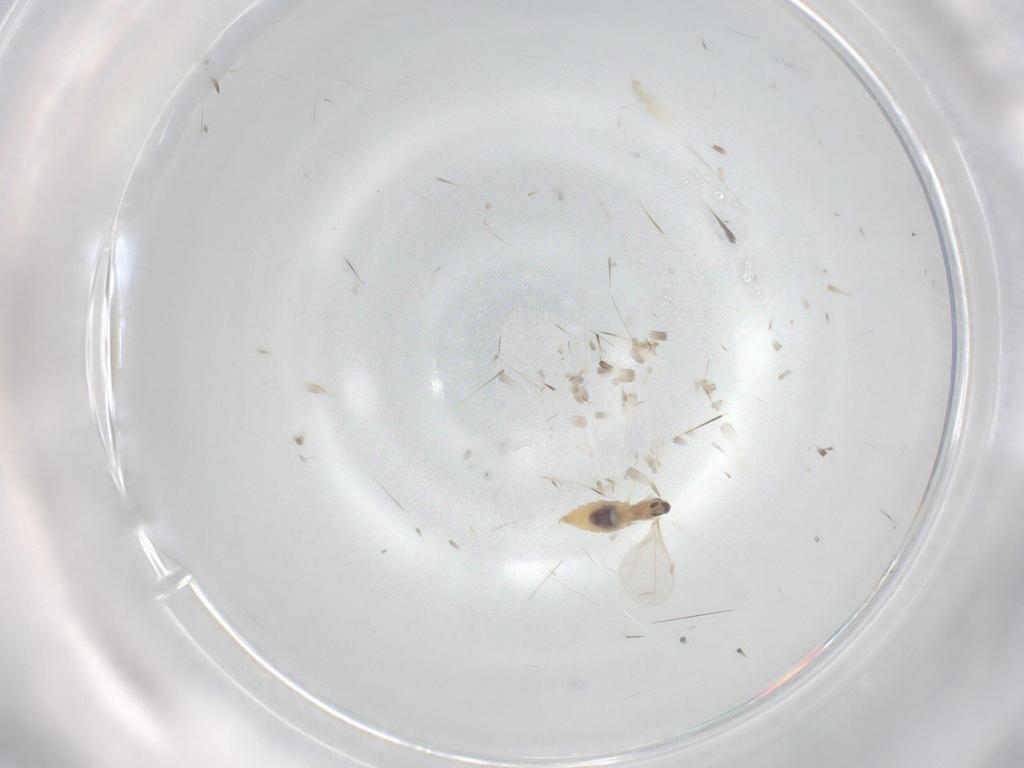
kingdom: Animalia
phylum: Arthropoda
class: Insecta
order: Diptera
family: Cecidomyiidae
